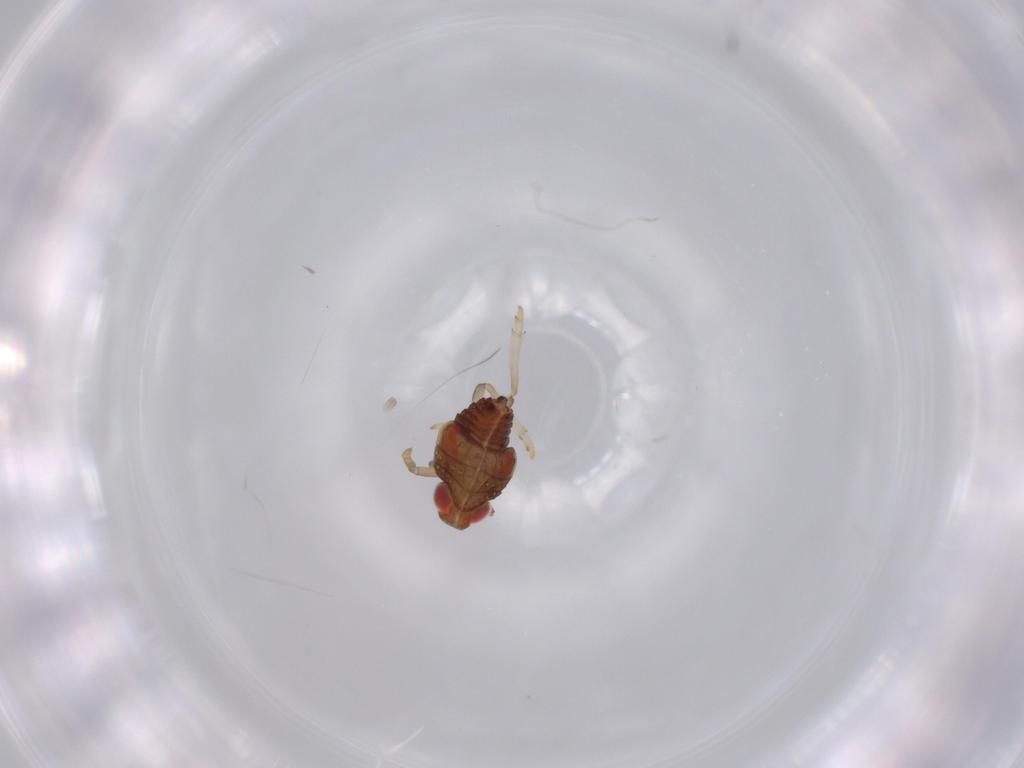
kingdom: Animalia
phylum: Arthropoda
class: Insecta
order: Hemiptera
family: Issidae
